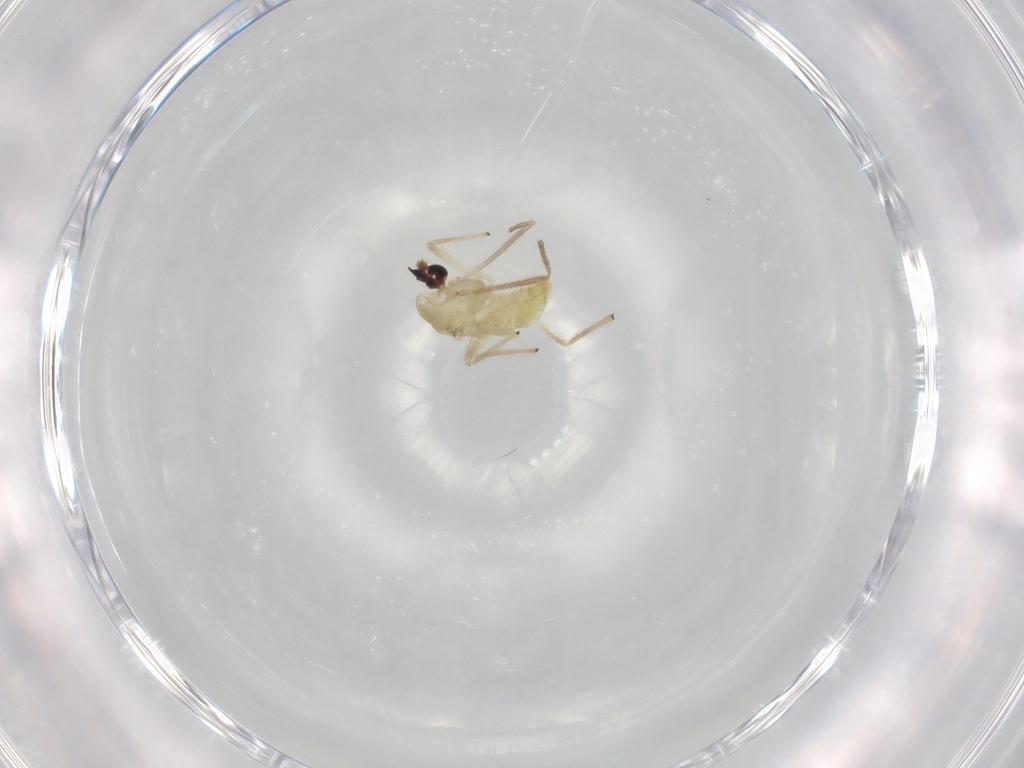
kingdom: Animalia
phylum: Arthropoda
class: Insecta
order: Diptera
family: Chironomidae
